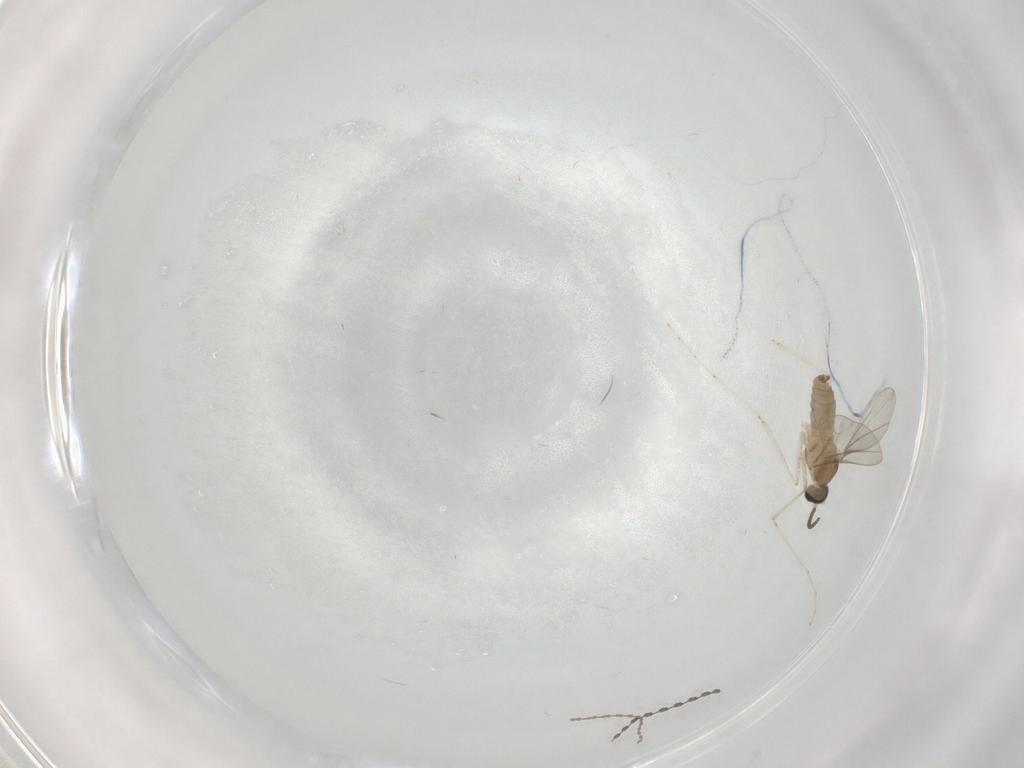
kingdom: Animalia
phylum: Arthropoda
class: Insecta
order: Diptera
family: Cecidomyiidae
